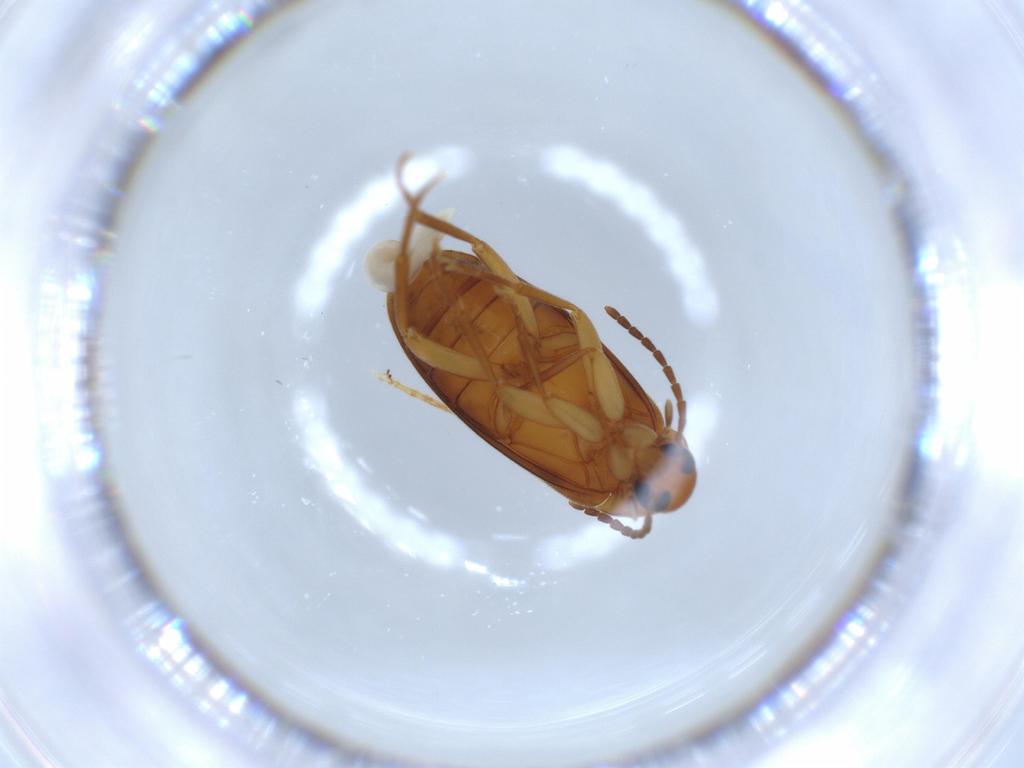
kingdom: Animalia
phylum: Arthropoda
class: Insecta
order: Coleoptera
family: Scraptiidae
